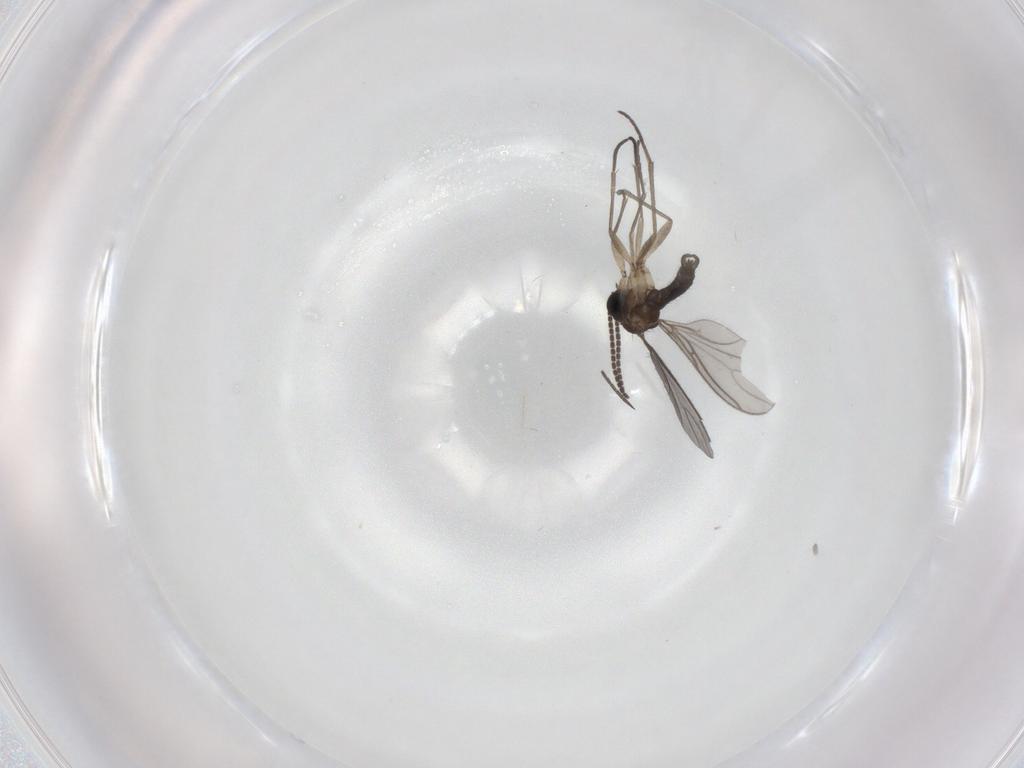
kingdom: Animalia
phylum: Arthropoda
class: Insecta
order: Diptera
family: Sciaridae
